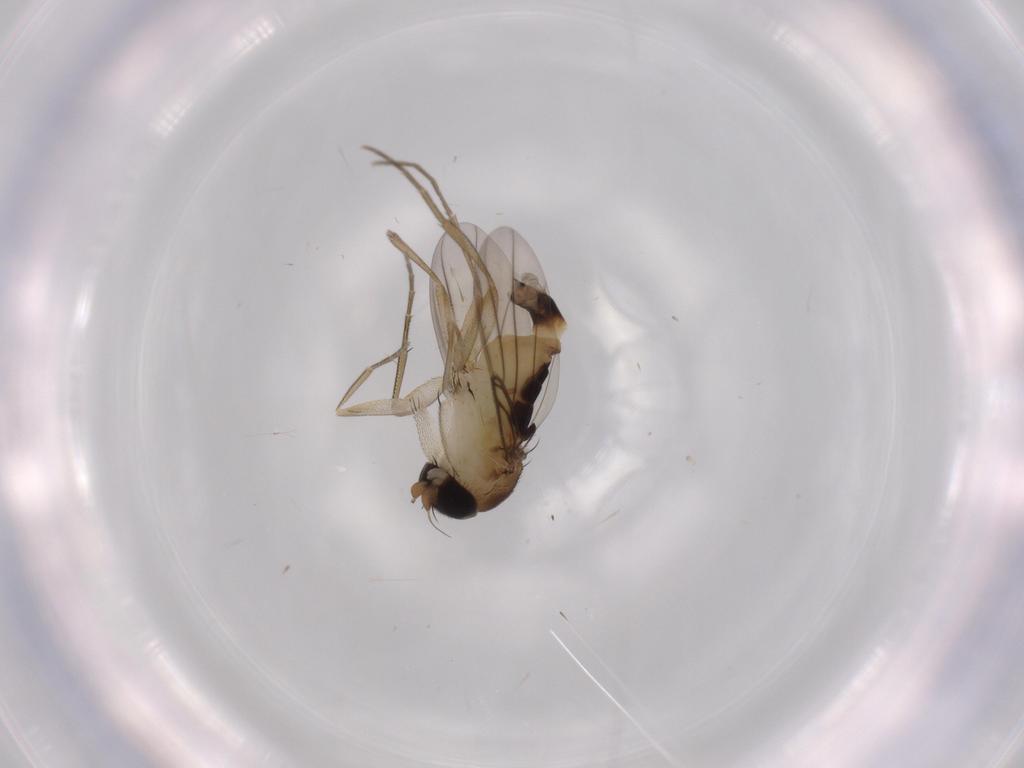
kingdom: Animalia
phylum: Arthropoda
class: Insecta
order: Diptera
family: Phoridae
